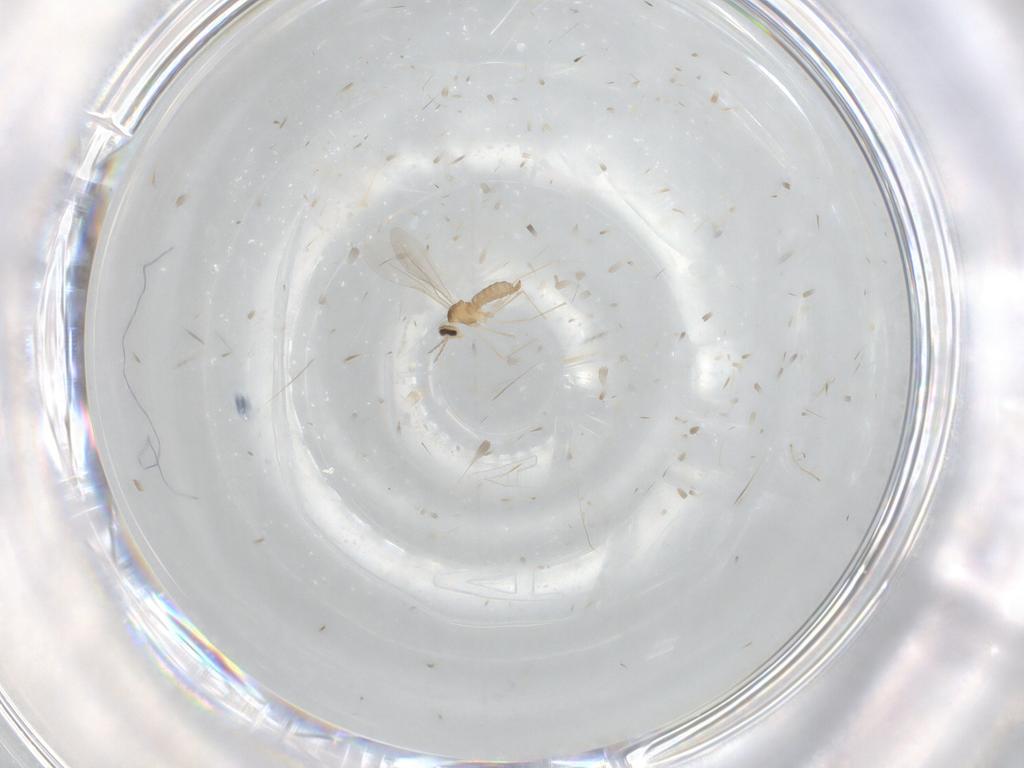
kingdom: Animalia
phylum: Arthropoda
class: Insecta
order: Diptera
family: Cecidomyiidae
